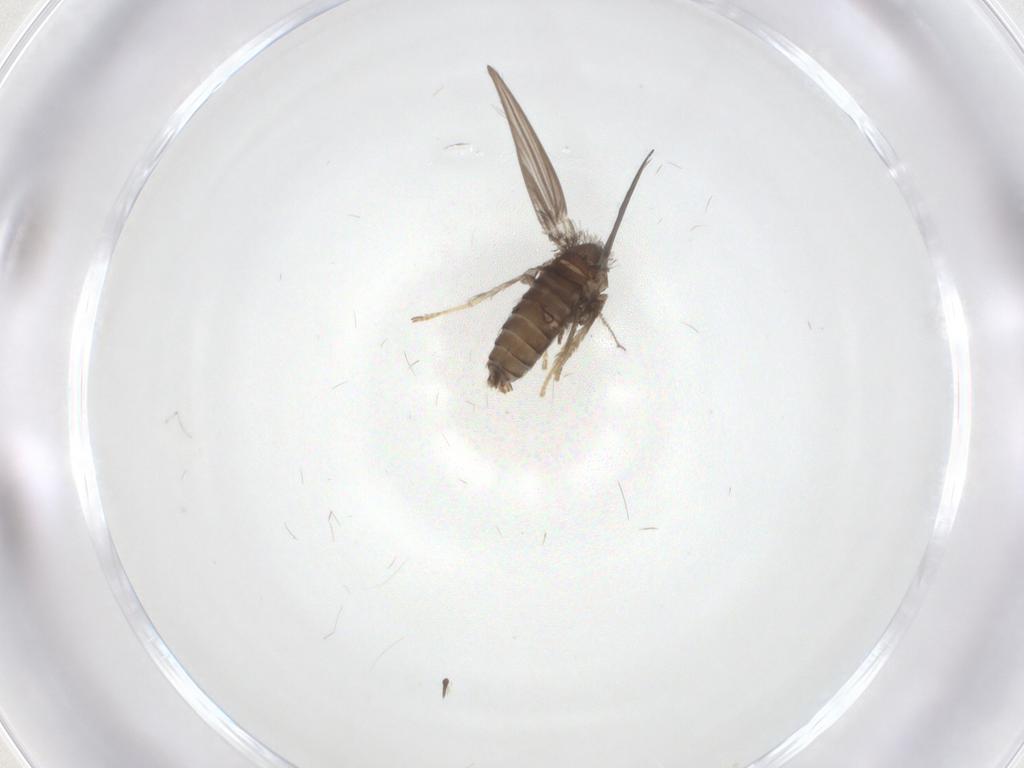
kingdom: Animalia
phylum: Arthropoda
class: Insecta
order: Diptera
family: Psychodidae
